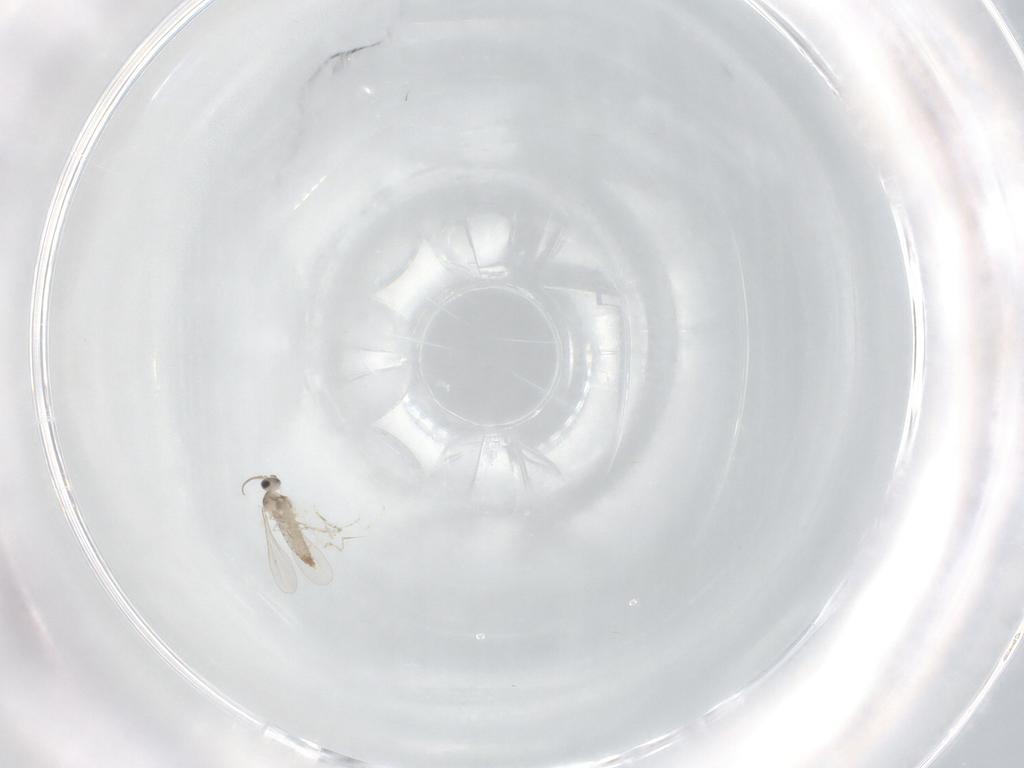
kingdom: Animalia
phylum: Arthropoda
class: Insecta
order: Diptera
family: Dolichopodidae
